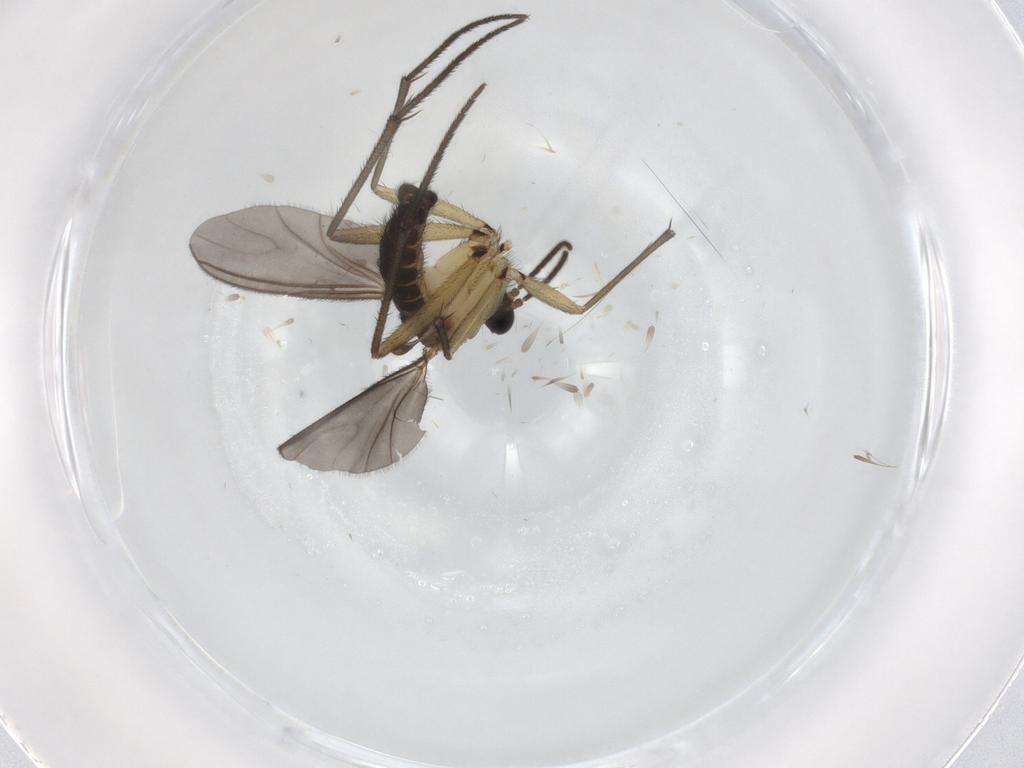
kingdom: Animalia
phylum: Arthropoda
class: Insecta
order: Diptera
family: Sciaridae
